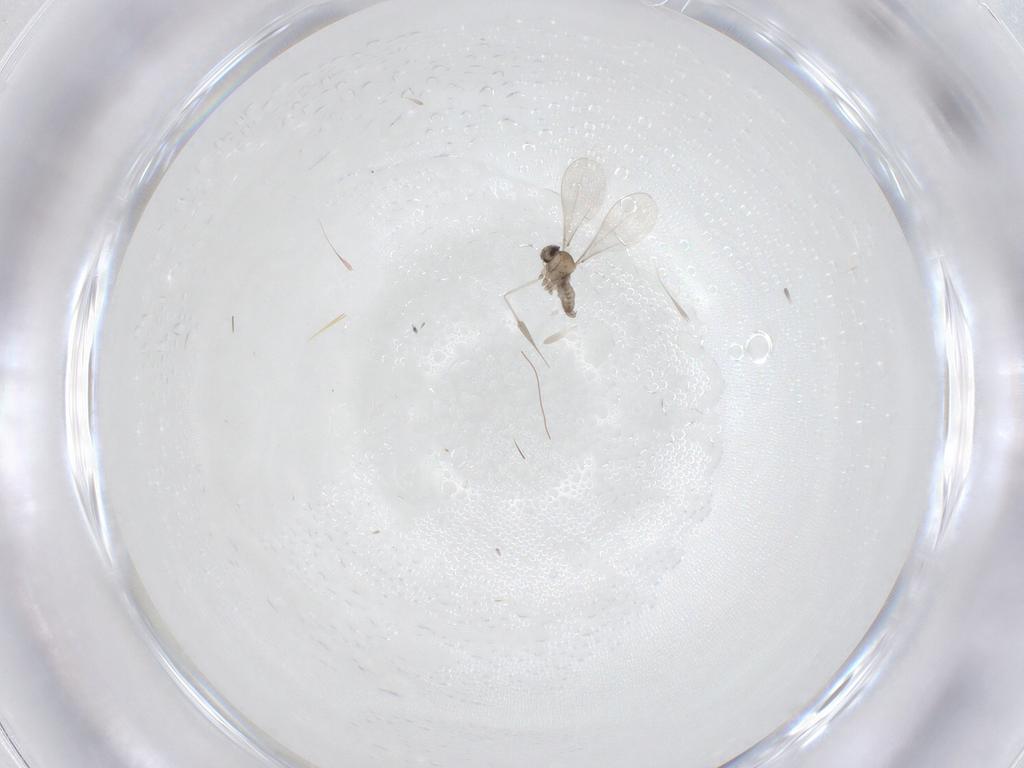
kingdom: Animalia
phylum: Arthropoda
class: Insecta
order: Diptera
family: Cecidomyiidae
